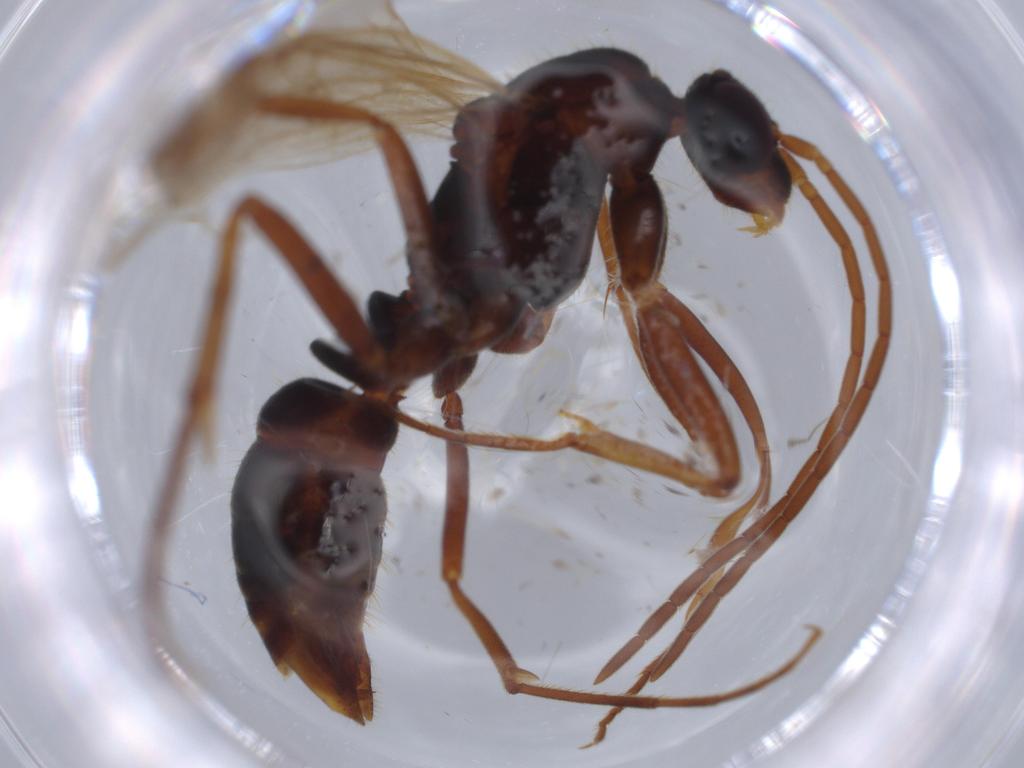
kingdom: Animalia
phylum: Arthropoda
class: Insecta
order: Hymenoptera
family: Formicidae
